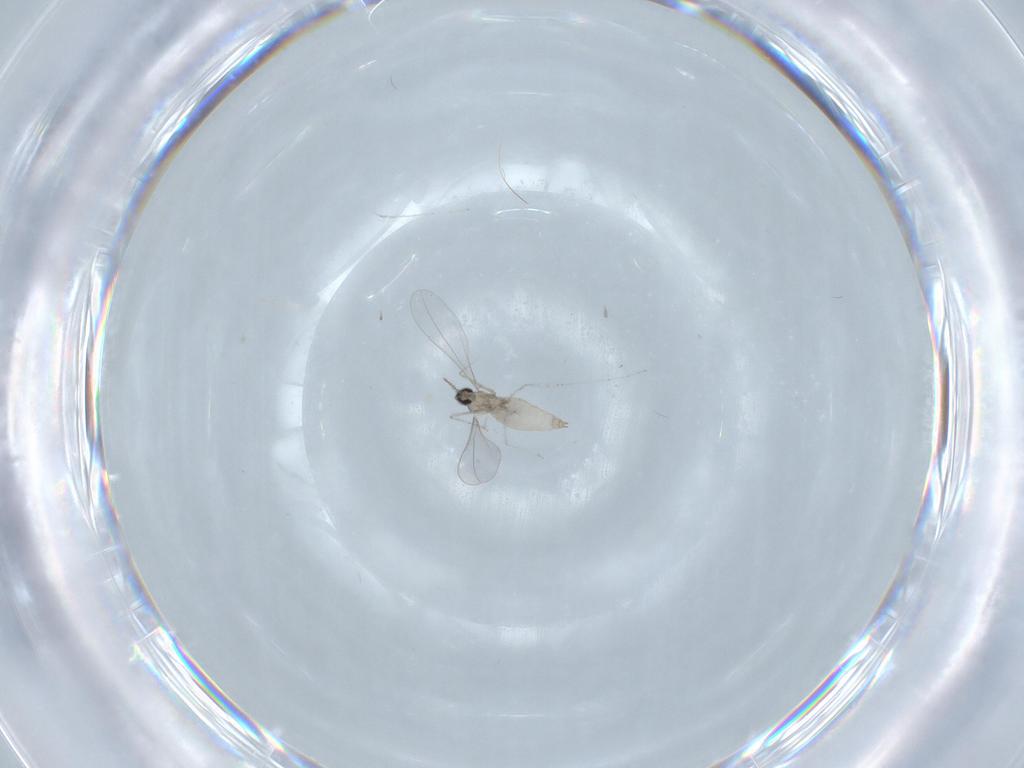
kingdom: Animalia
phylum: Arthropoda
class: Insecta
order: Diptera
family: Cecidomyiidae
